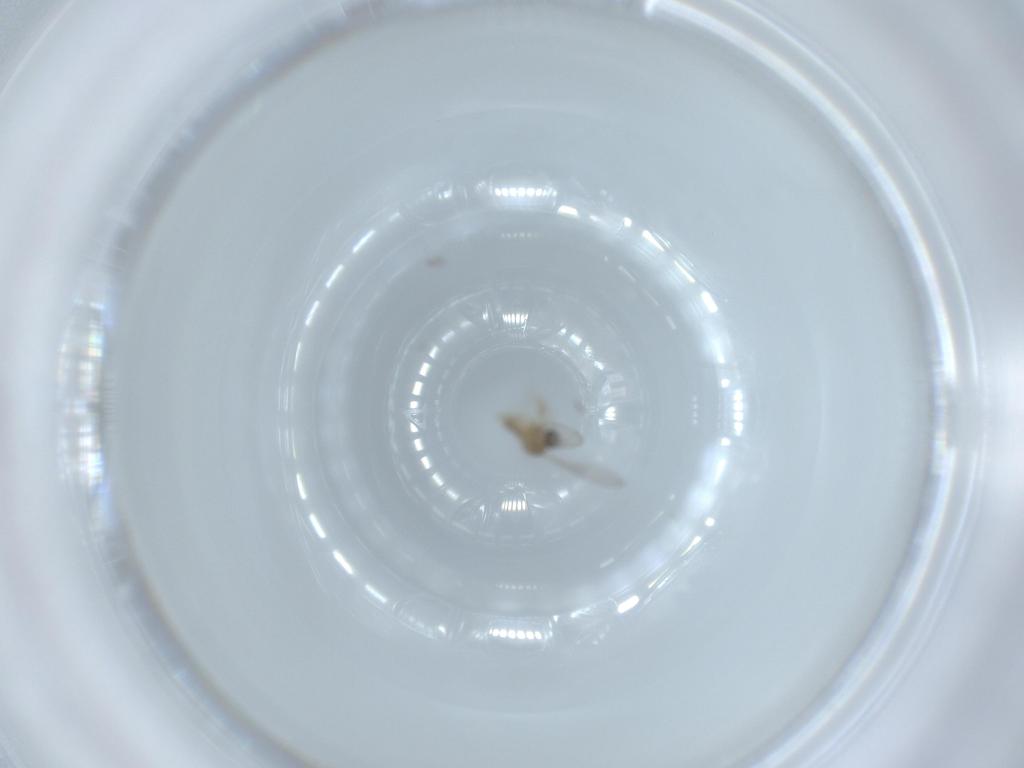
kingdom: Animalia
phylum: Arthropoda
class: Insecta
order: Diptera
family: Cecidomyiidae
